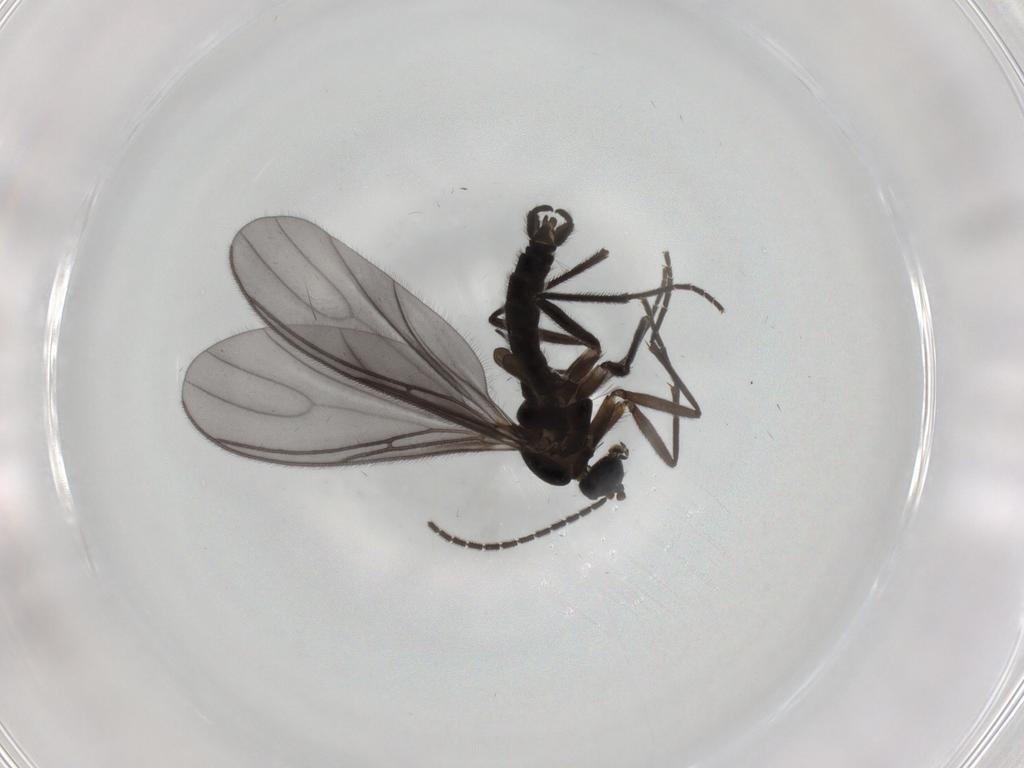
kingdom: Animalia
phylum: Arthropoda
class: Insecta
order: Diptera
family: Sciaridae
